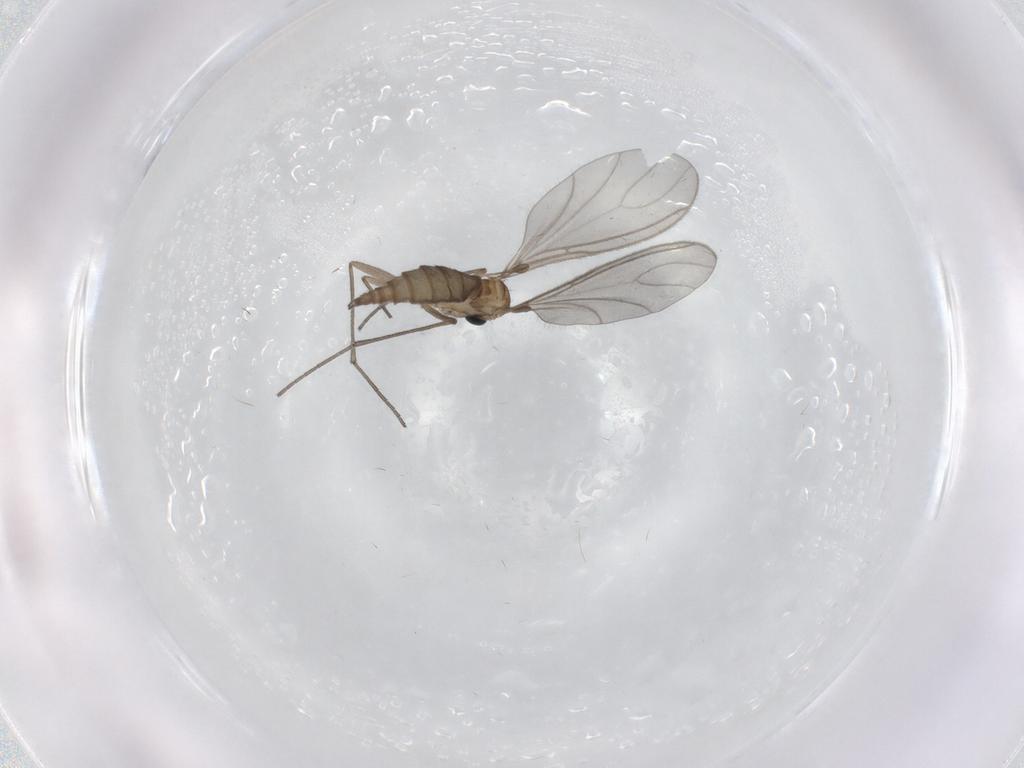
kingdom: Animalia
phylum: Arthropoda
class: Insecta
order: Diptera
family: Sciaridae
